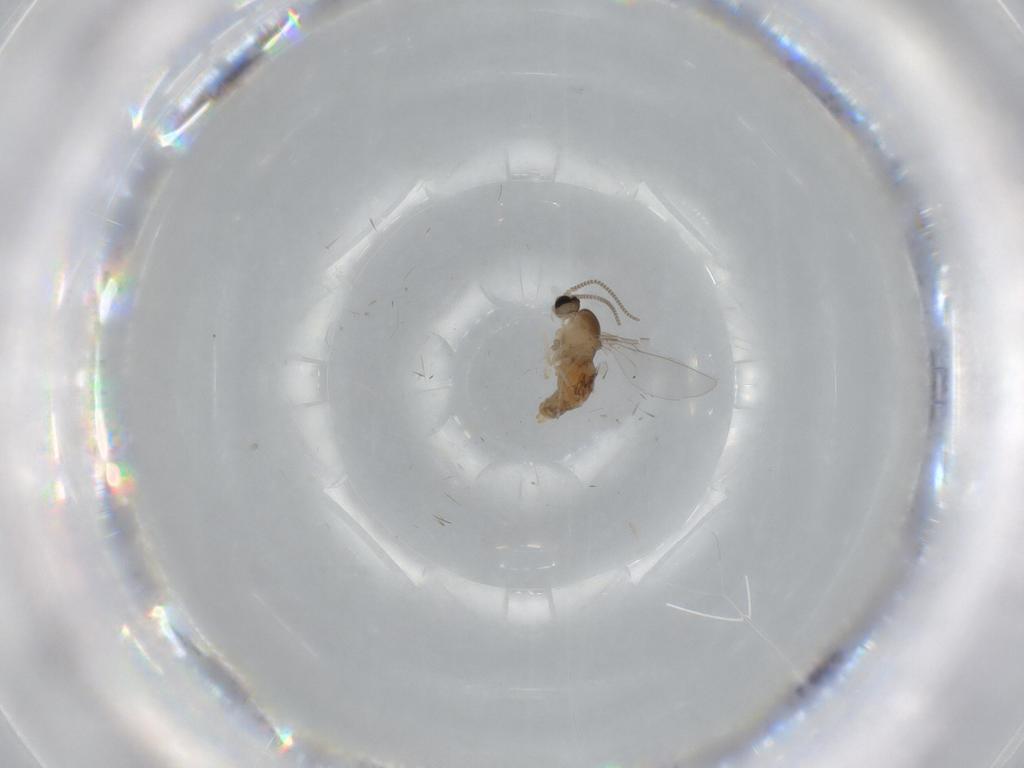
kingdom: Animalia
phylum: Arthropoda
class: Insecta
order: Diptera
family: Cecidomyiidae
